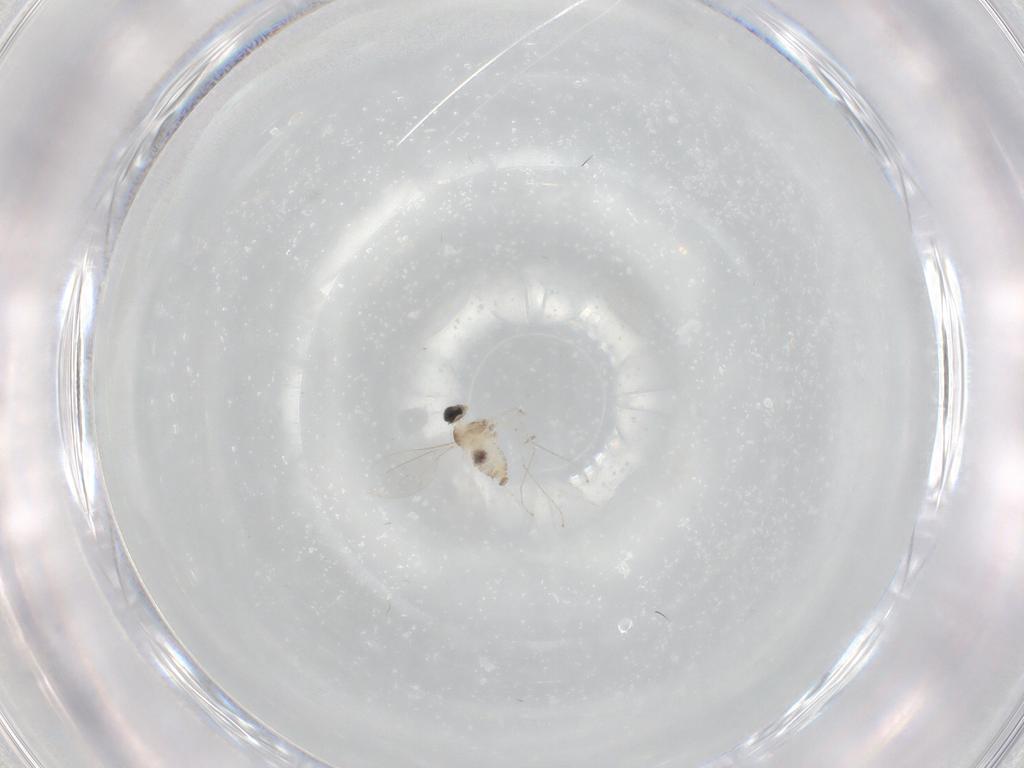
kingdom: Animalia
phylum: Arthropoda
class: Insecta
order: Diptera
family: Cecidomyiidae
